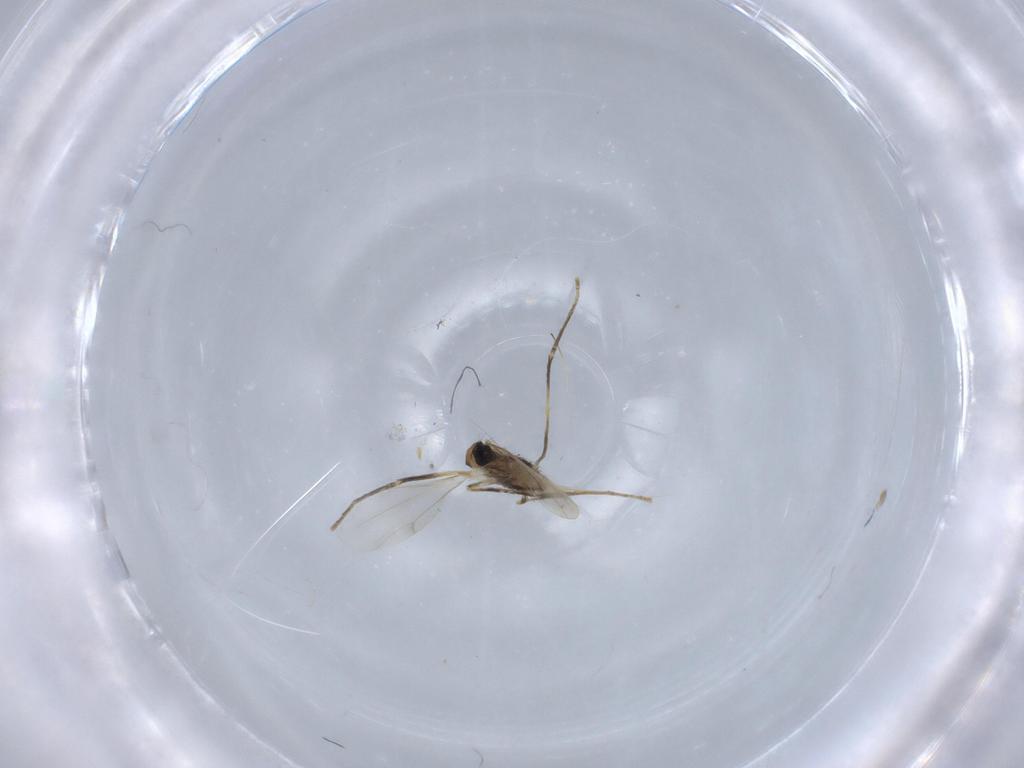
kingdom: Animalia
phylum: Arthropoda
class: Insecta
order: Diptera
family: Cecidomyiidae
